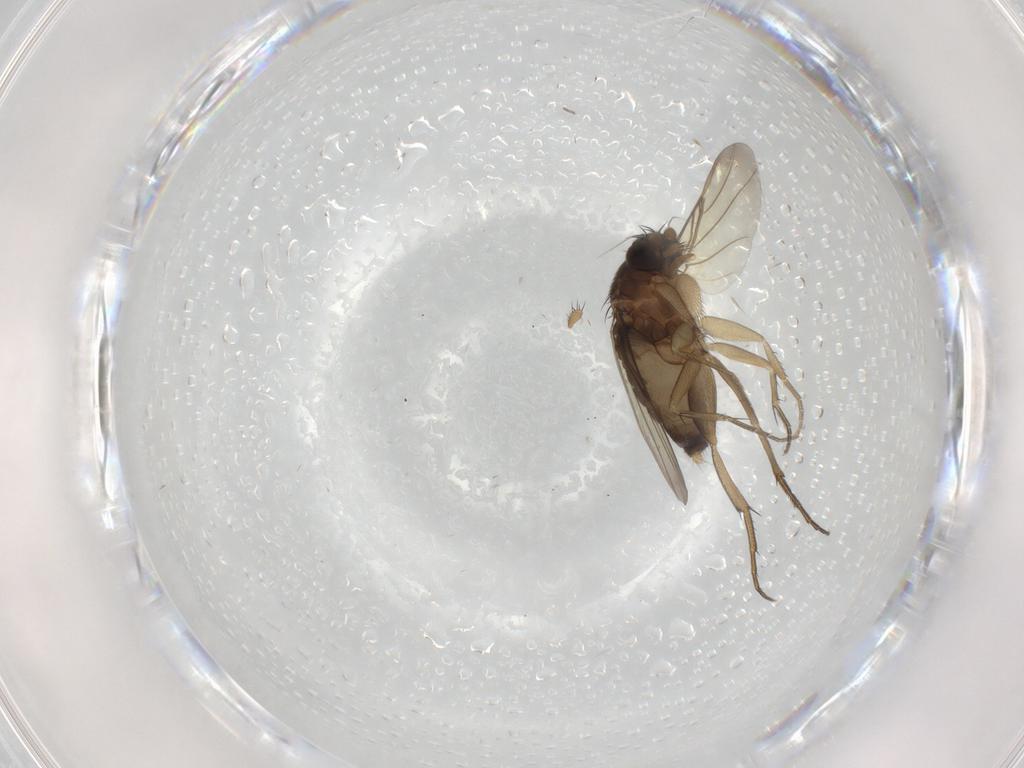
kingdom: Animalia
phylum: Arthropoda
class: Insecta
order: Diptera
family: Phoridae
